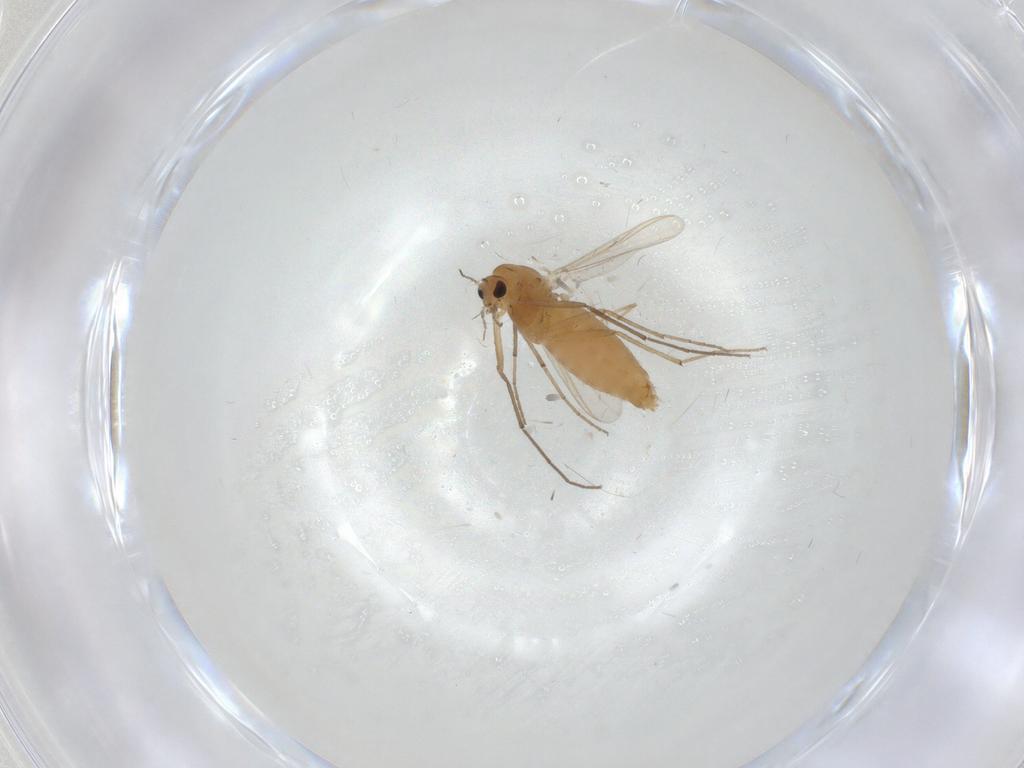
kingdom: Animalia
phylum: Arthropoda
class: Insecta
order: Diptera
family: Chironomidae
